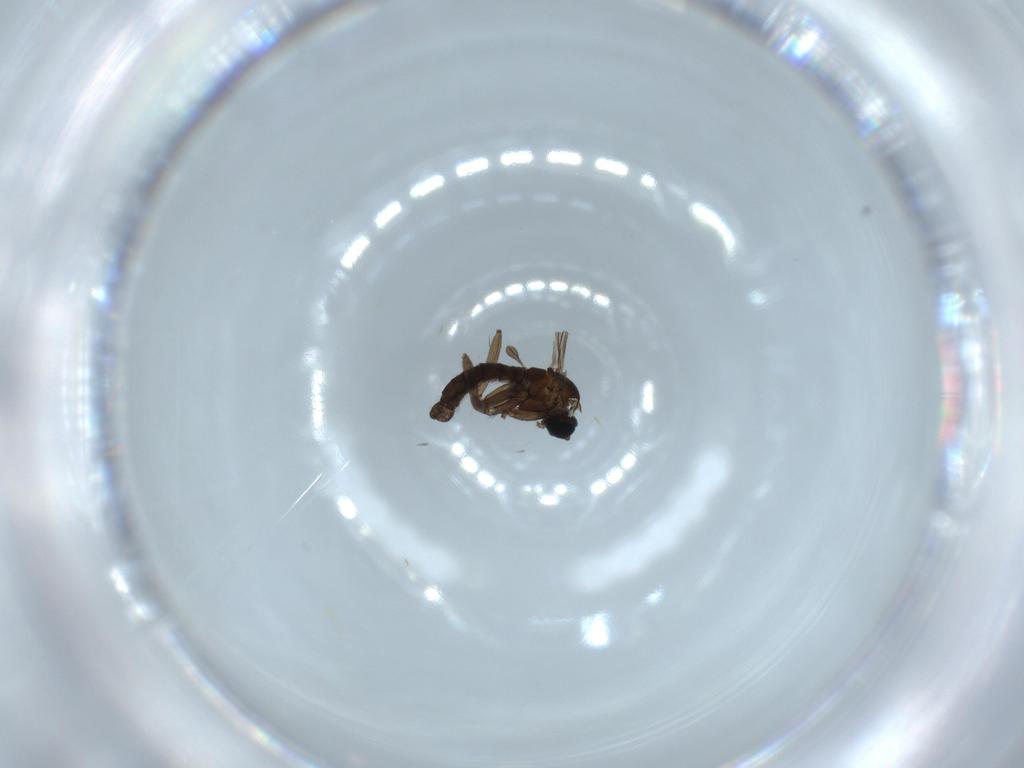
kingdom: Animalia
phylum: Arthropoda
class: Insecta
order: Diptera
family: Sciaridae
